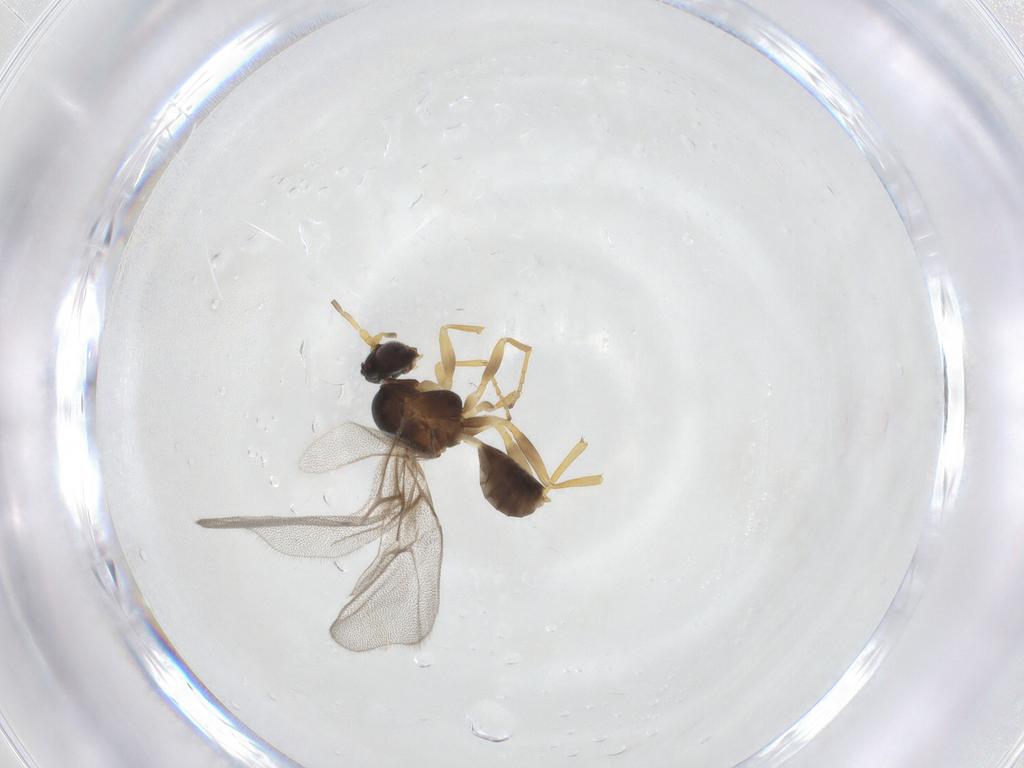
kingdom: Animalia
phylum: Arthropoda
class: Insecta
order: Hymenoptera
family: Cynipidae
